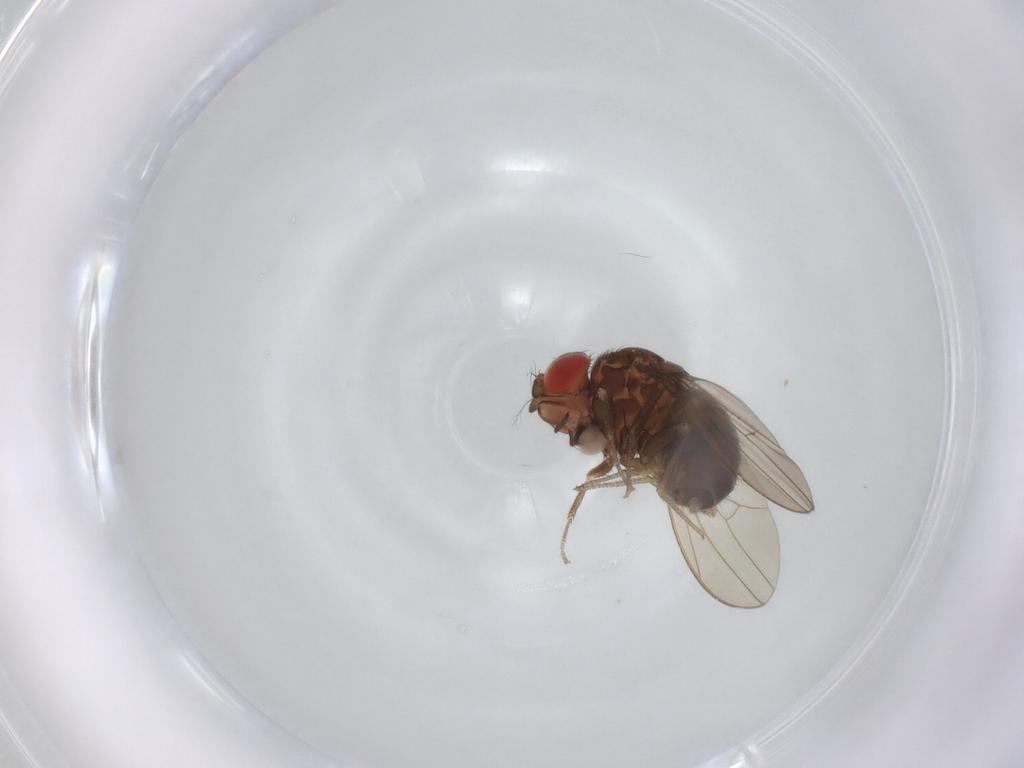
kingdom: Animalia
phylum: Arthropoda
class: Insecta
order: Diptera
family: Cecidomyiidae
